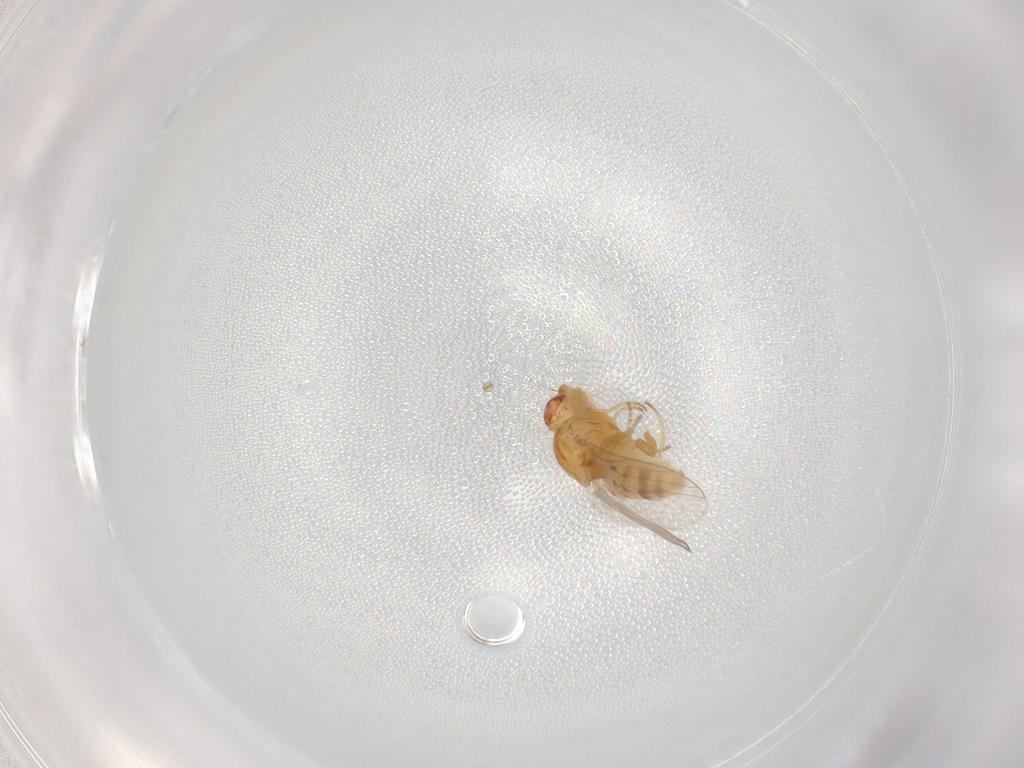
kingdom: Animalia
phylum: Arthropoda
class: Insecta
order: Diptera
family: Chloropidae
